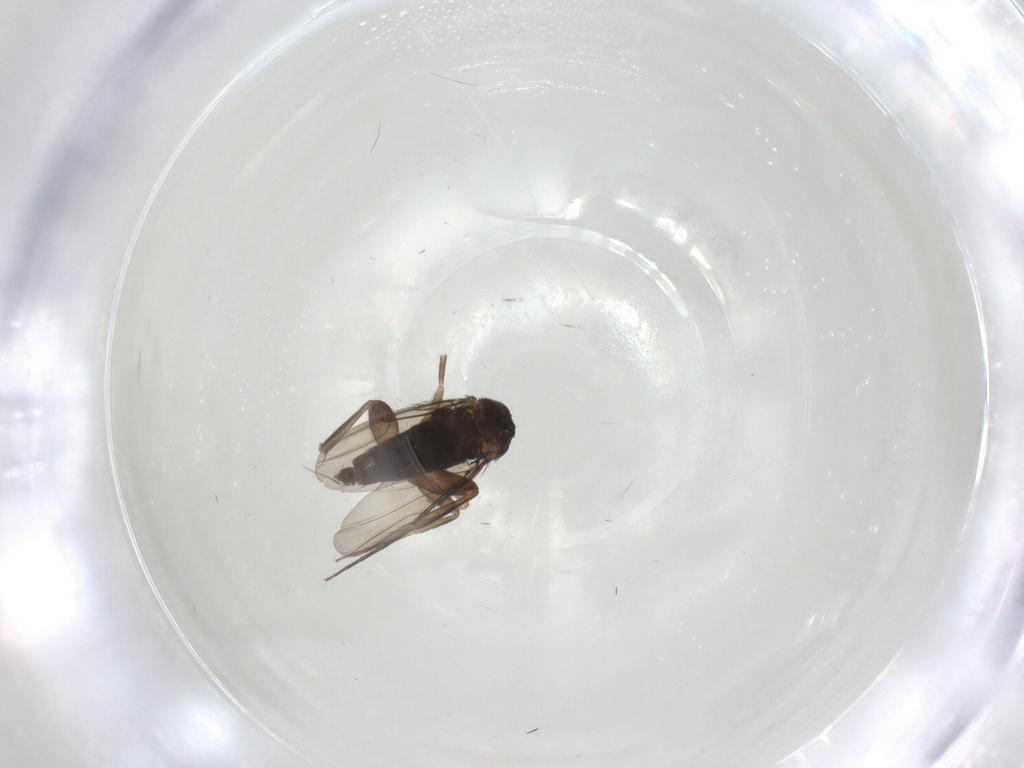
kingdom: Animalia
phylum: Arthropoda
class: Insecta
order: Diptera
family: Phoridae
